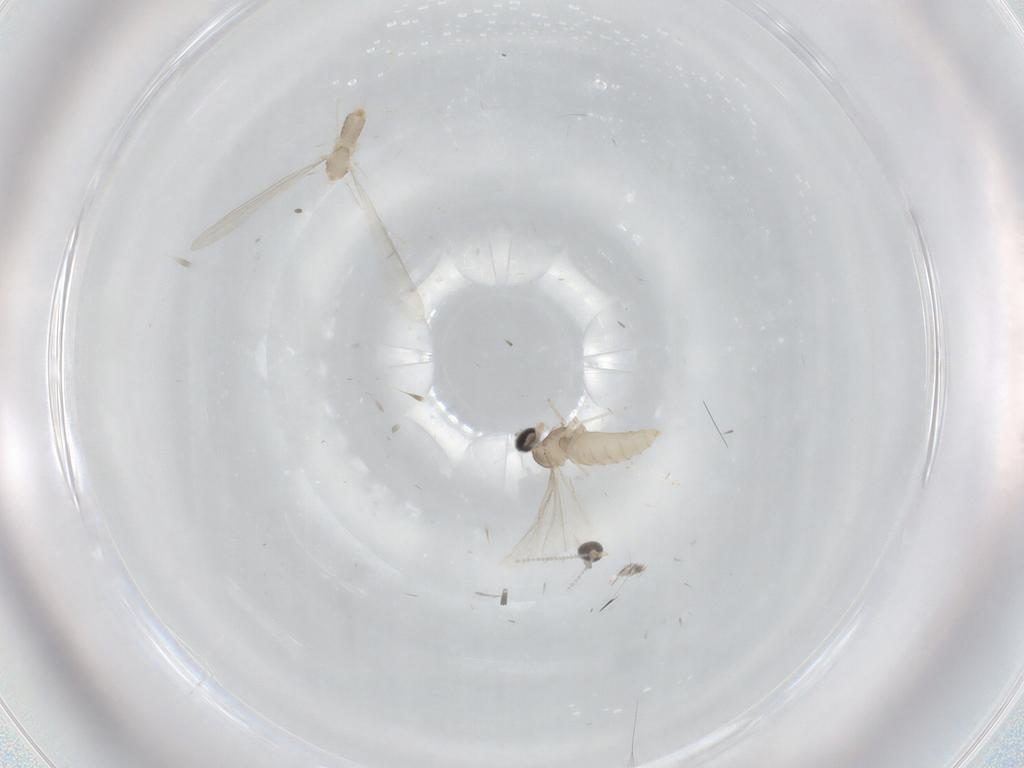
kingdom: Animalia
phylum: Arthropoda
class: Insecta
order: Diptera
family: Cecidomyiidae
